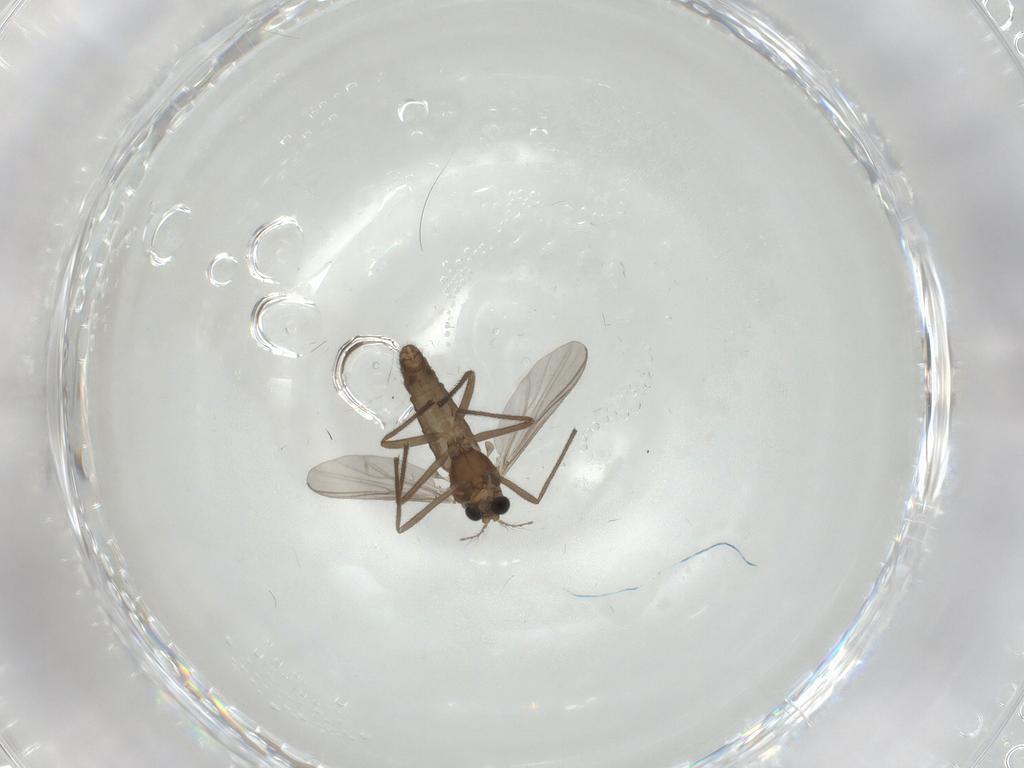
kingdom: Animalia
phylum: Arthropoda
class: Insecta
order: Diptera
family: Chironomidae
